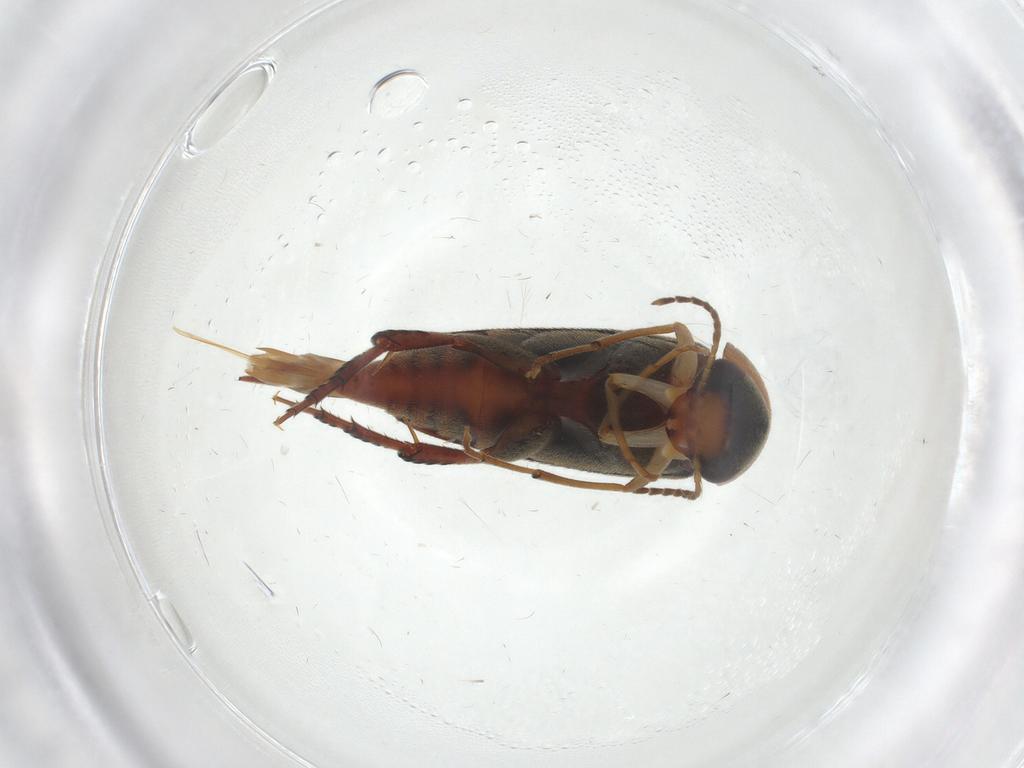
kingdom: Animalia
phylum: Arthropoda
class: Insecta
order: Coleoptera
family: Mordellidae
